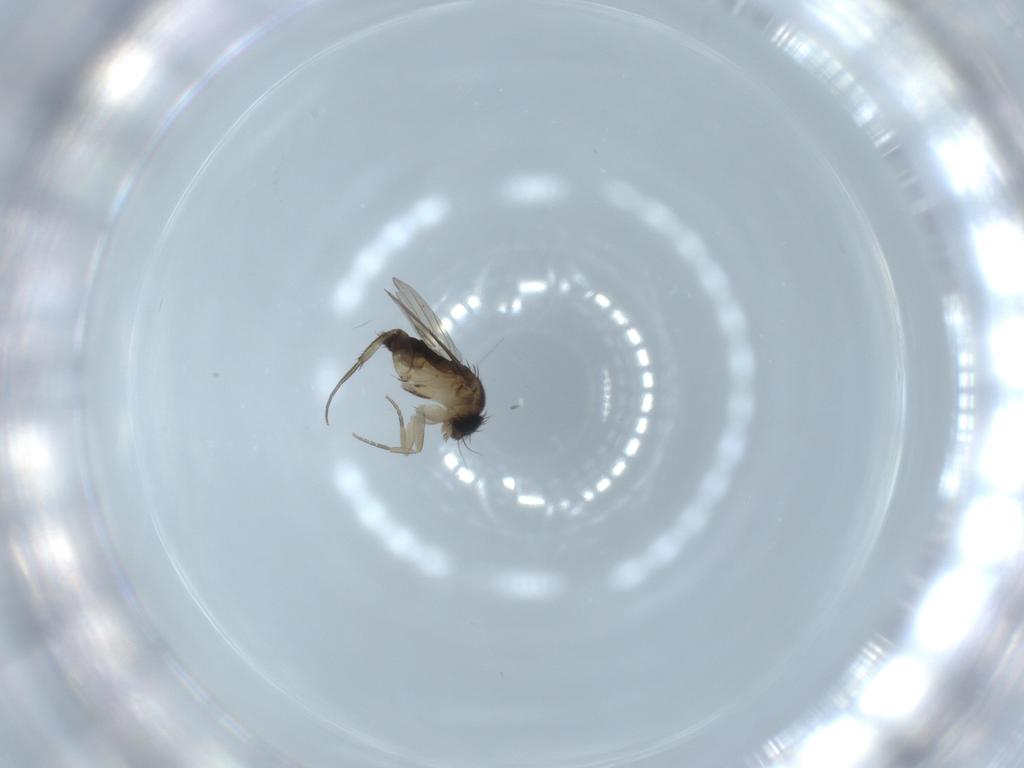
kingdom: Animalia
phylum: Arthropoda
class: Insecta
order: Diptera
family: Phoridae
